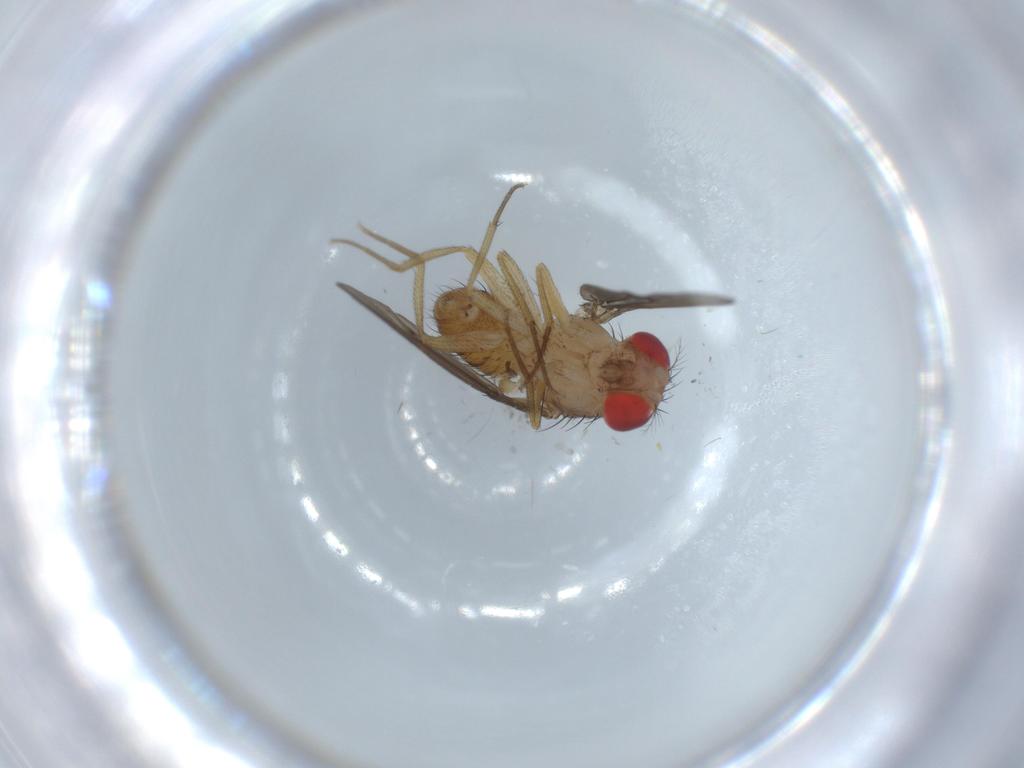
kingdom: Animalia
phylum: Arthropoda
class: Insecta
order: Diptera
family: Drosophilidae
